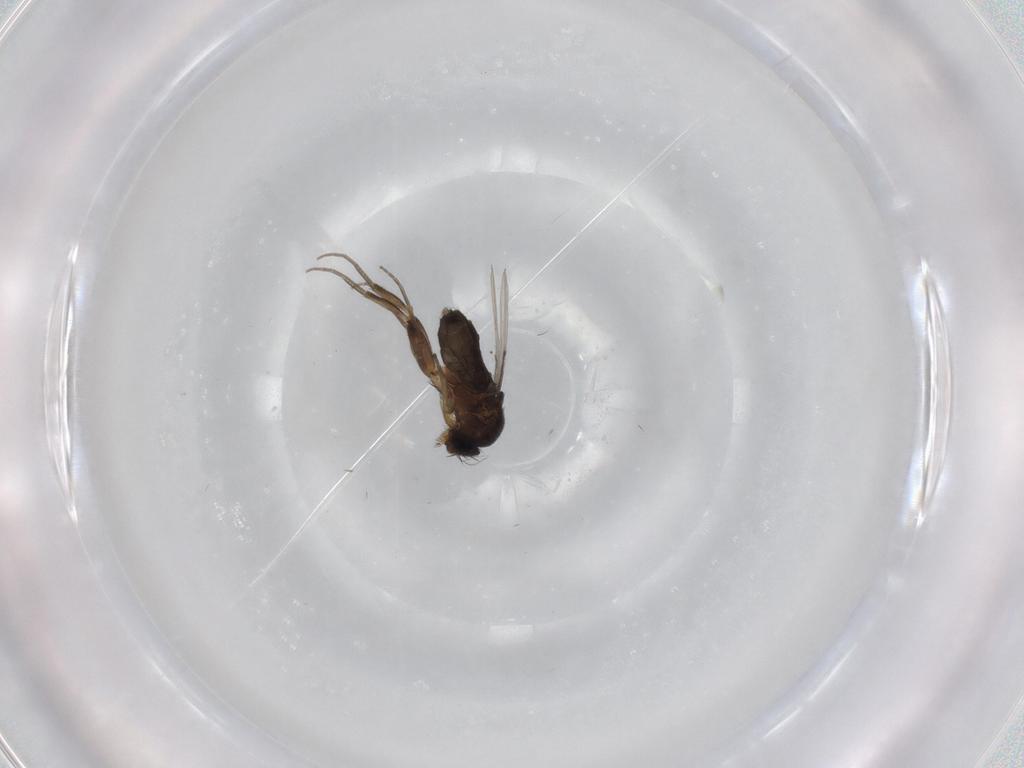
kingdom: Animalia
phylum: Arthropoda
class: Insecta
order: Diptera
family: Phoridae
